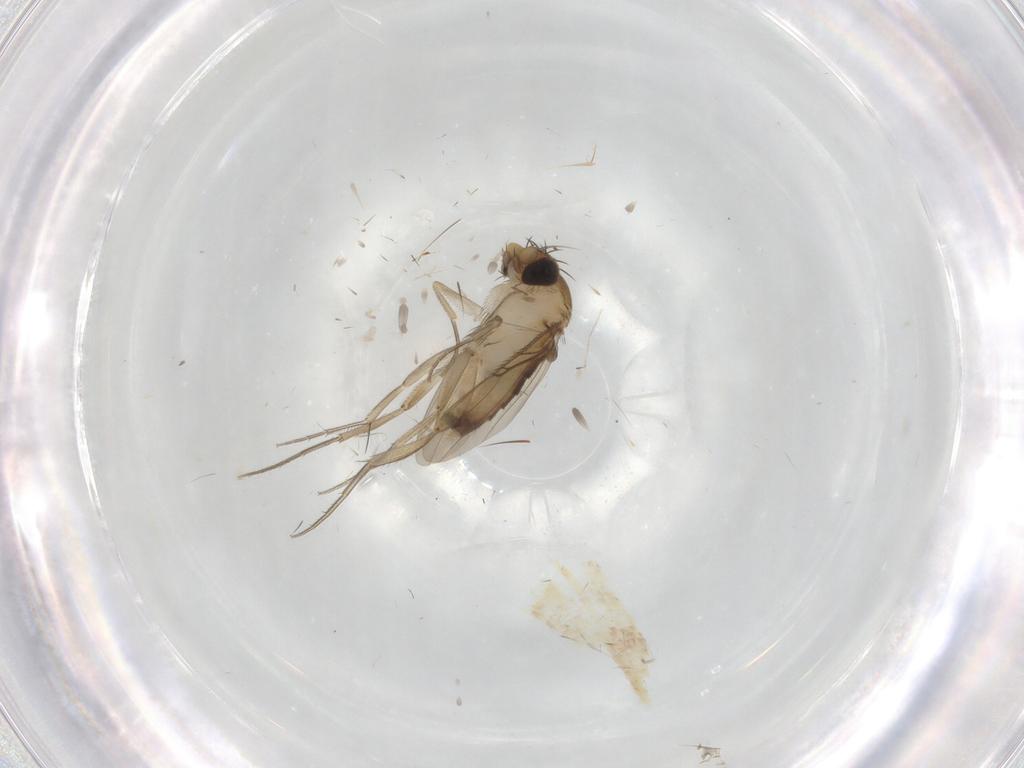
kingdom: Animalia
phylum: Arthropoda
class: Insecta
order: Diptera
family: Phoridae
